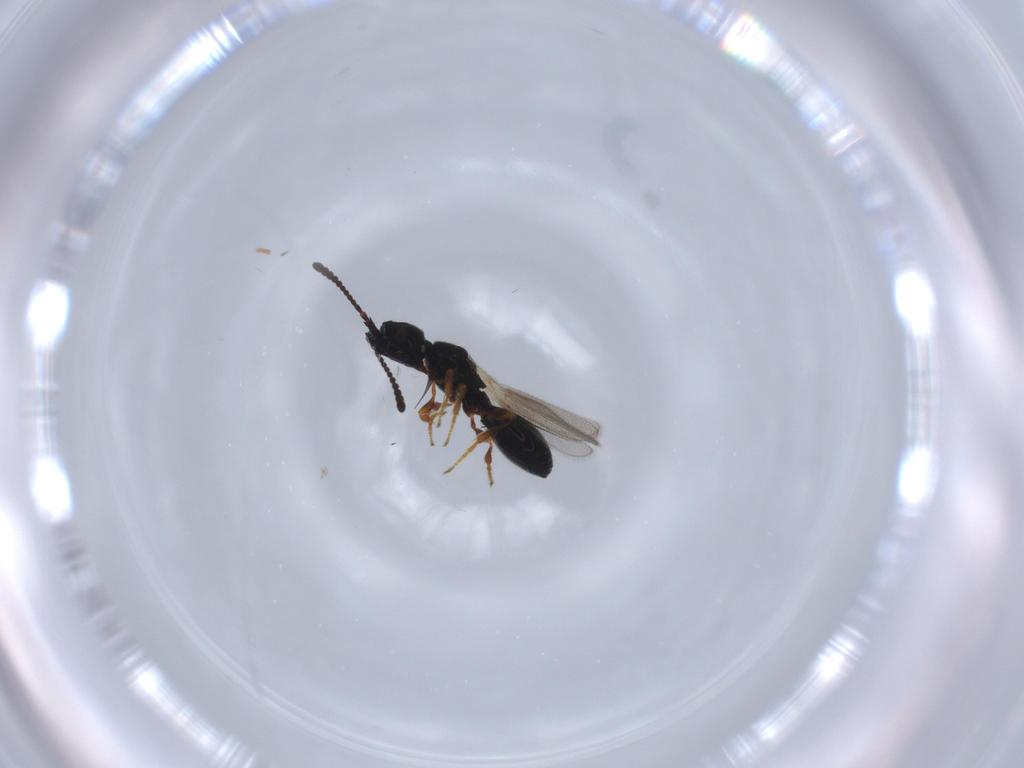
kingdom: Animalia
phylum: Arthropoda
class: Insecta
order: Hymenoptera
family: Diapriidae
